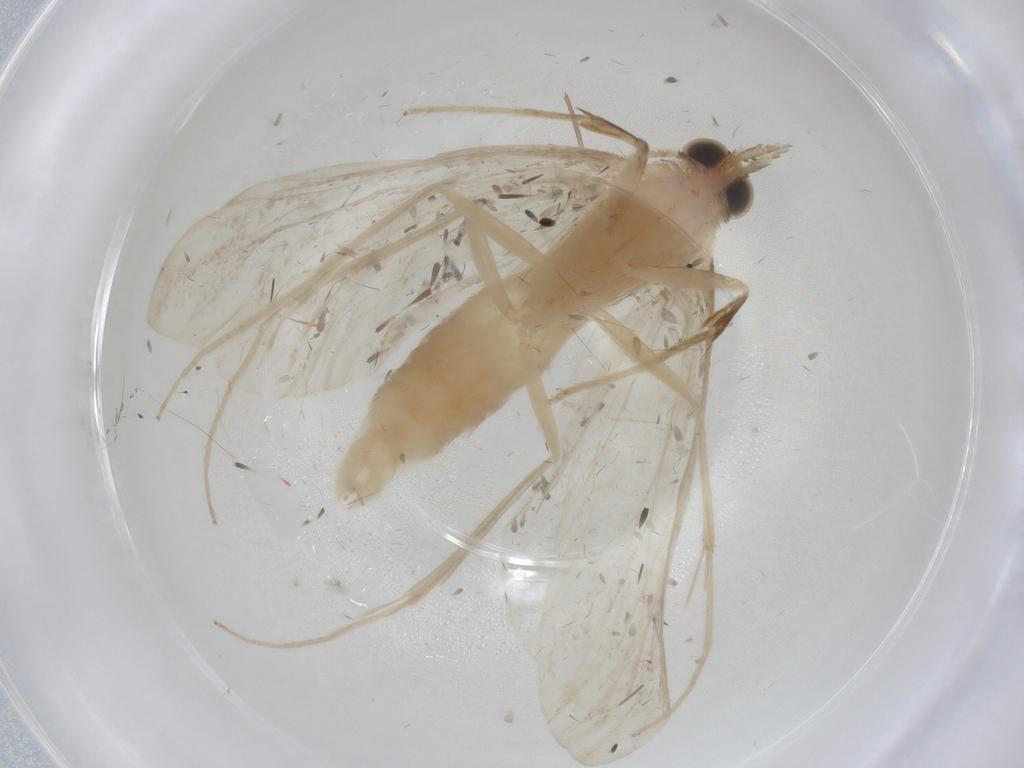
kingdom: Animalia
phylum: Arthropoda
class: Insecta
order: Lepidoptera
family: Crambidae
